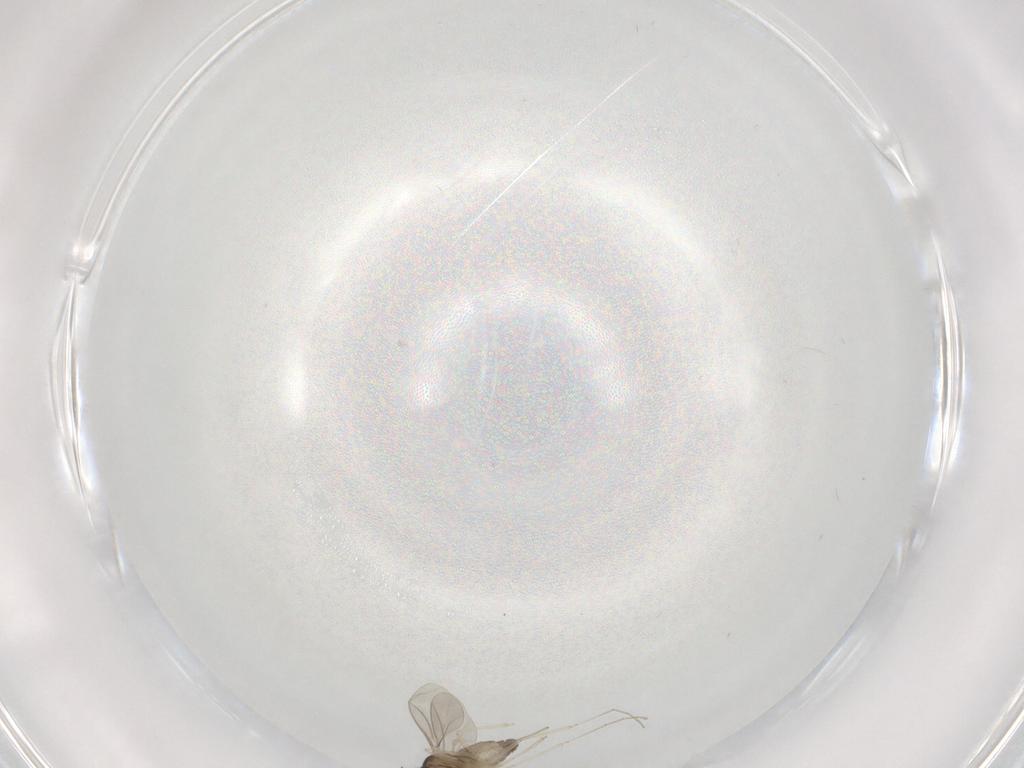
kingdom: Animalia
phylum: Arthropoda
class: Insecta
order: Diptera
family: Cecidomyiidae
